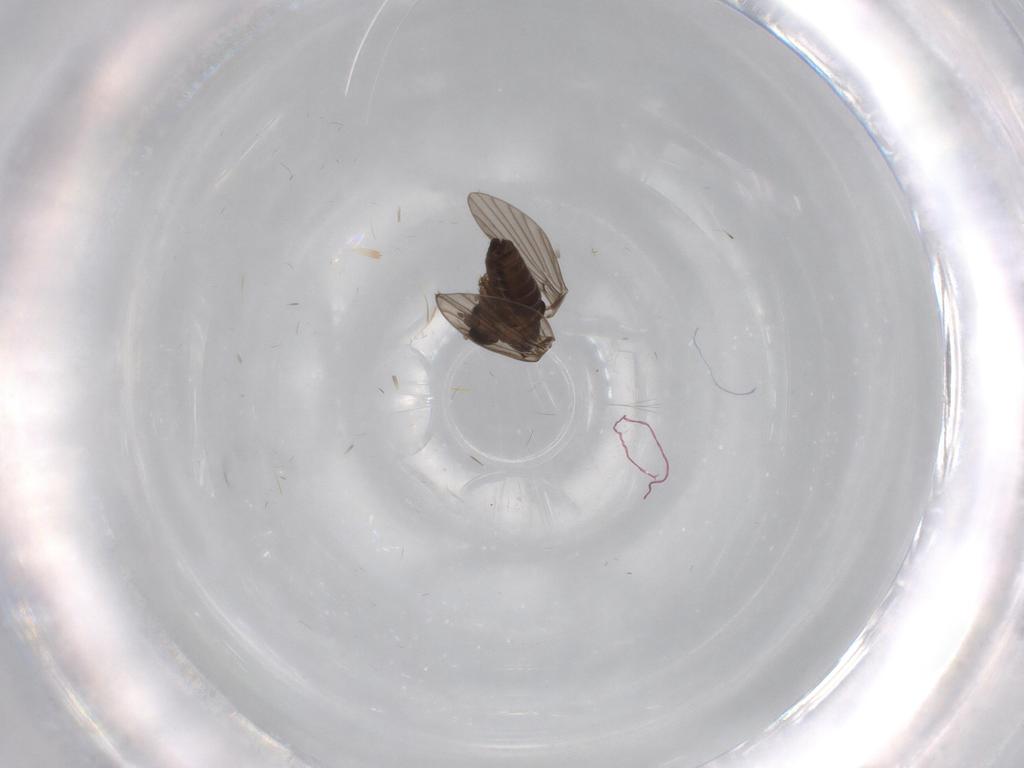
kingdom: Animalia
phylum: Arthropoda
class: Insecta
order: Diptera
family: Psychodidae
